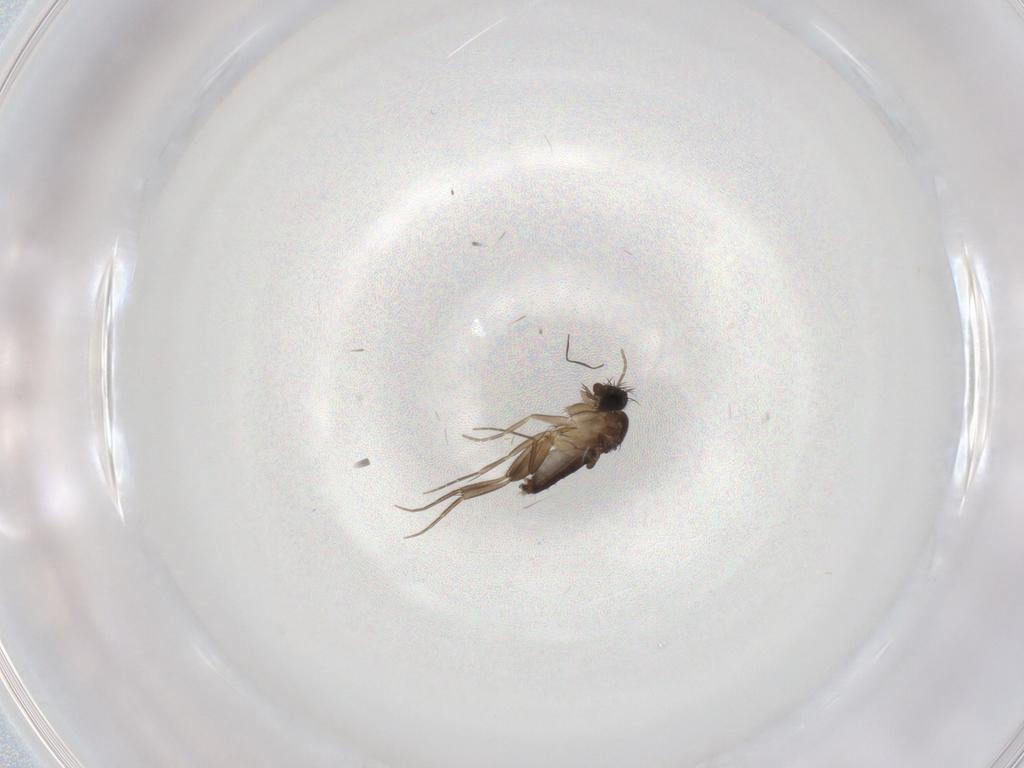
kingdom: Animalia
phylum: Arthropoda
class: Insecta
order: Diptera
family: Phoridae
